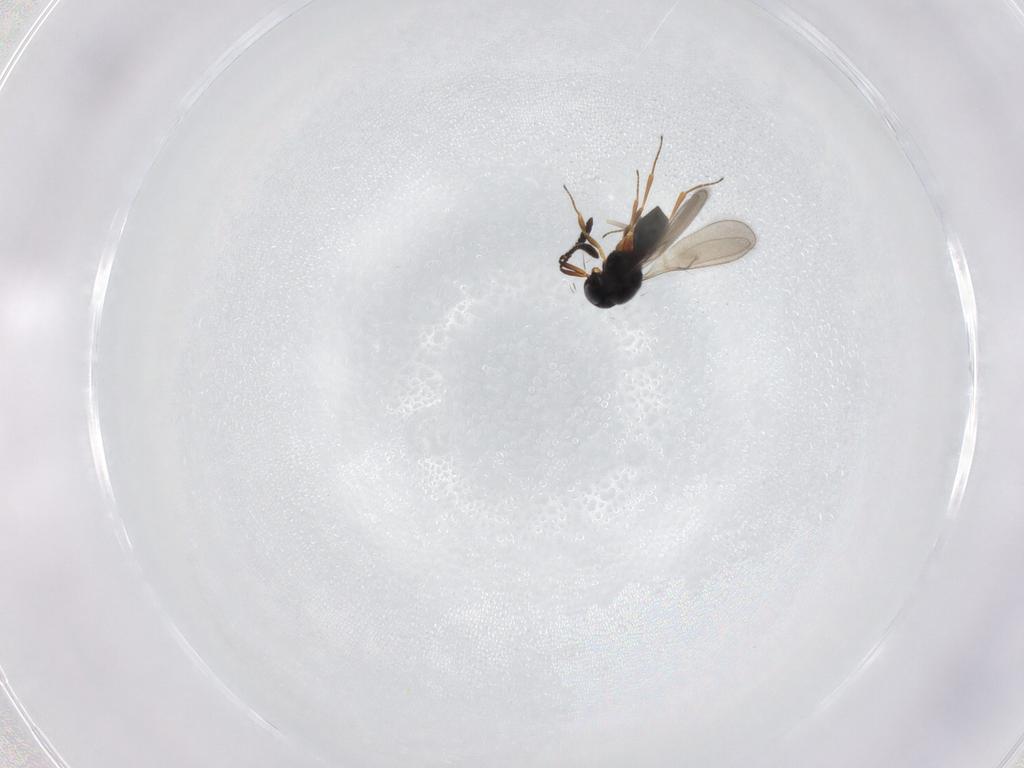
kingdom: Animalia
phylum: Arthropoda
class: Insecta
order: Hymenoptera
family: Scelionidae
